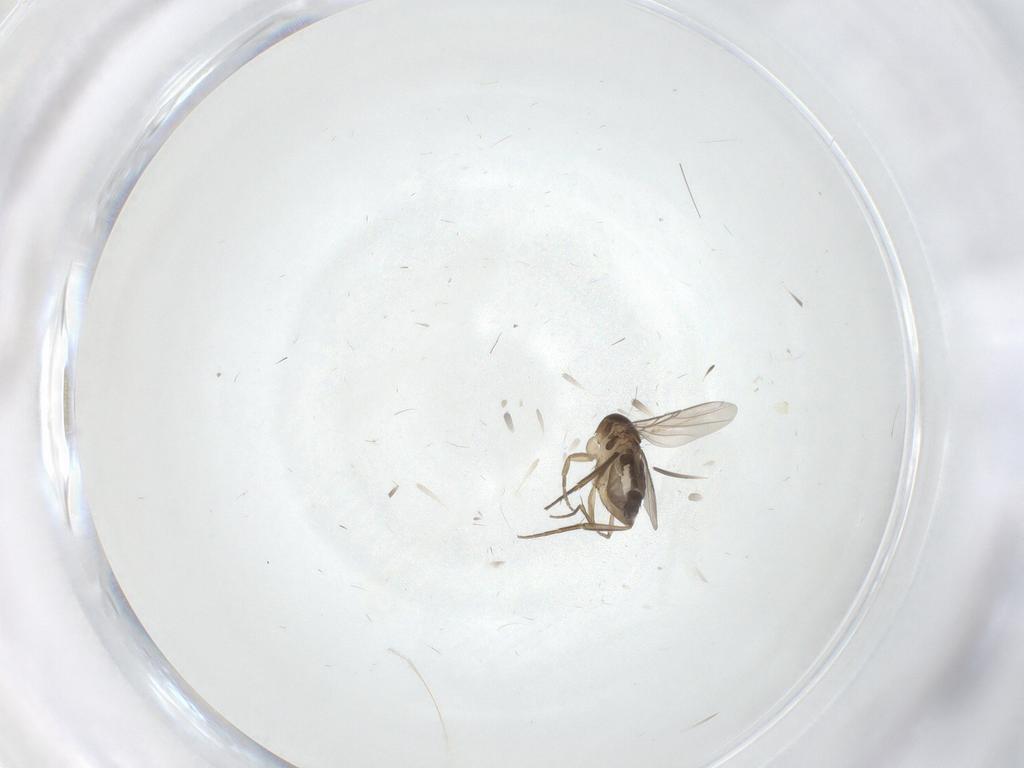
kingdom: Animalia
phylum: Arthropoda
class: Insecta
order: Diptera
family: Phoridae
